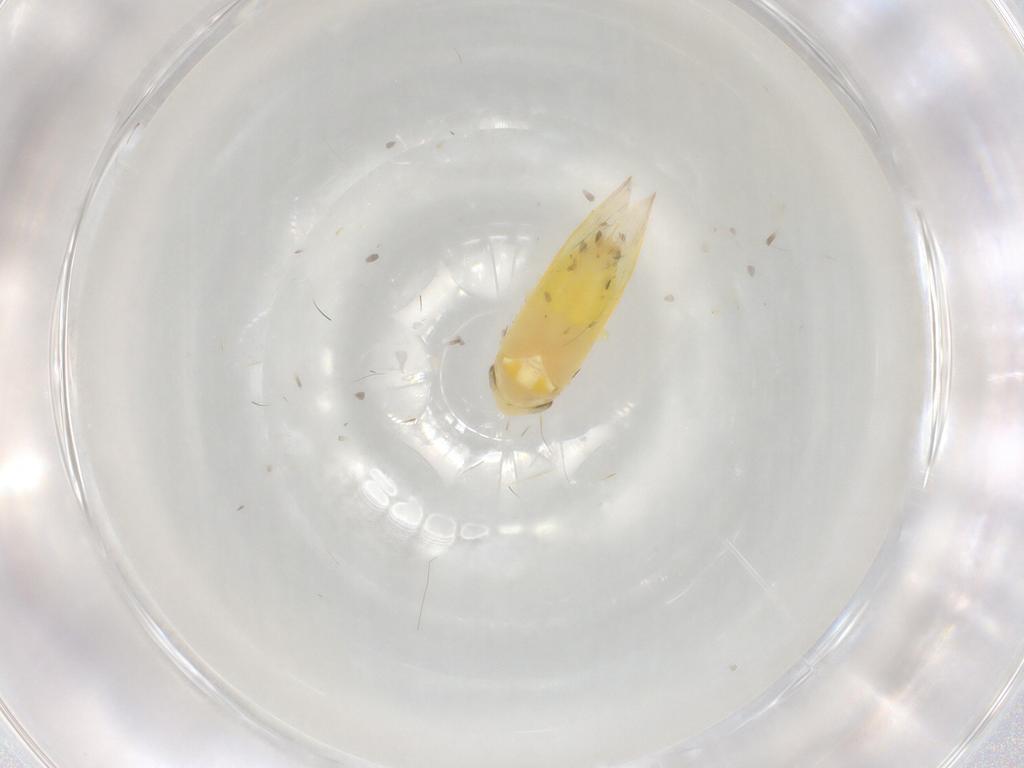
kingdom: Animalia
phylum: Arthropoda
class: Insecta
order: Hemiptera
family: Cicadellidae
